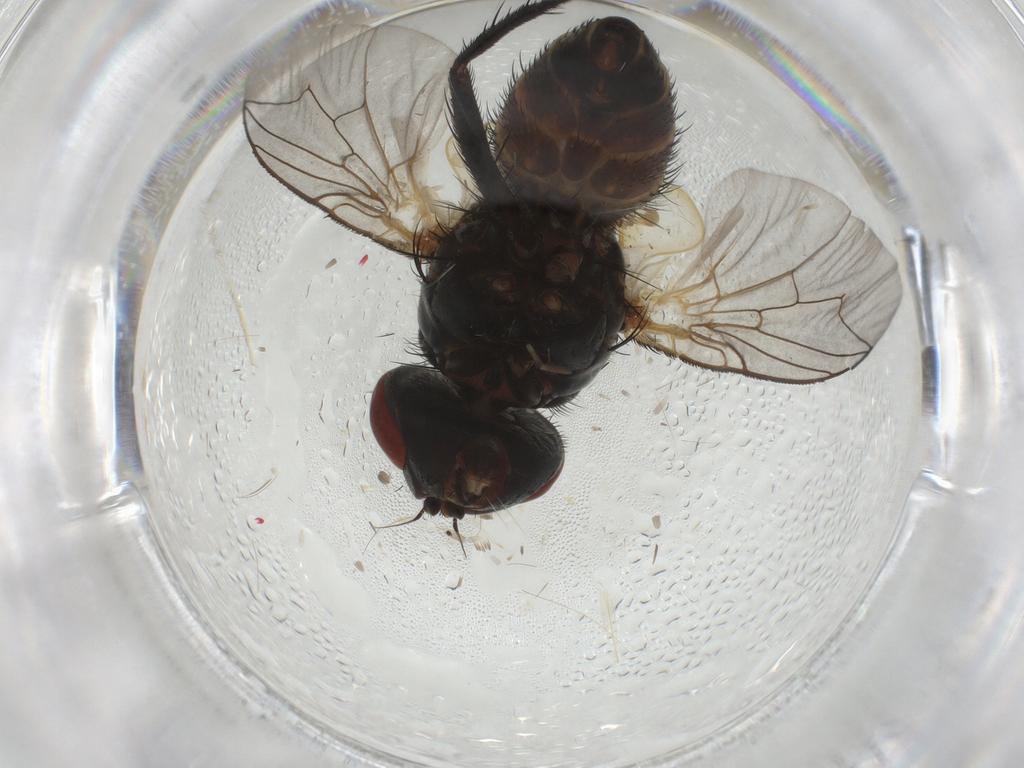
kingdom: Animalia
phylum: Arthropoda
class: Insecta
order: Diptera
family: Sarcophagidae
